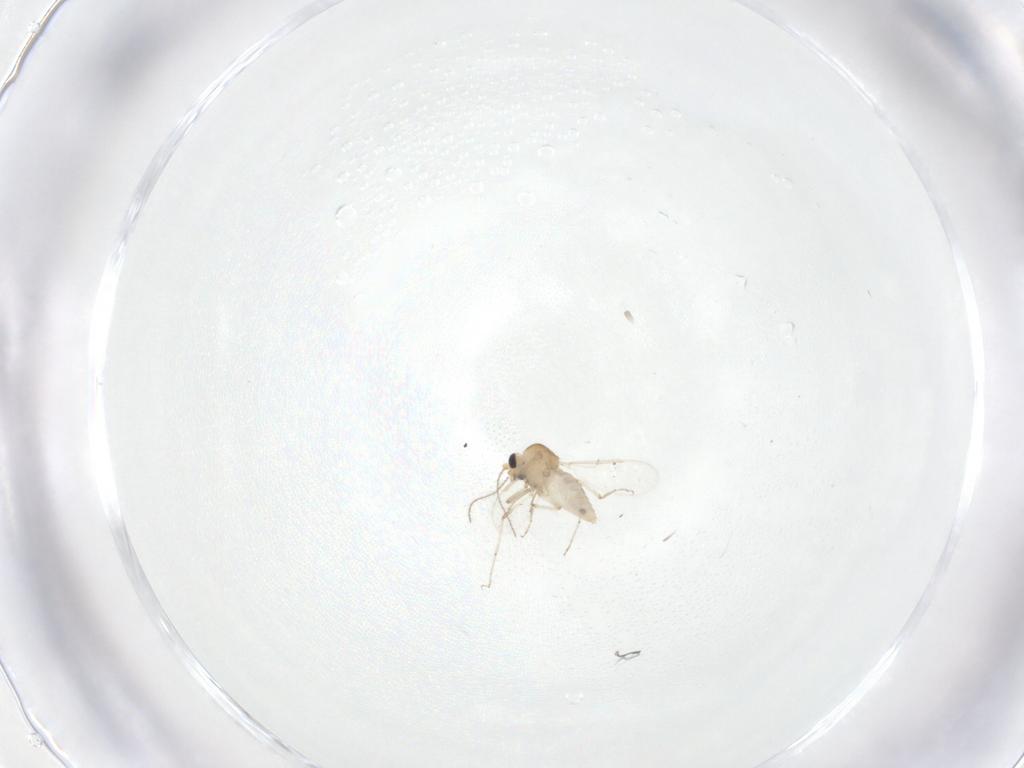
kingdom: Animalia
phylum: Arthropoda
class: Insecta
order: Diptera
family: Ceratopogonidae
